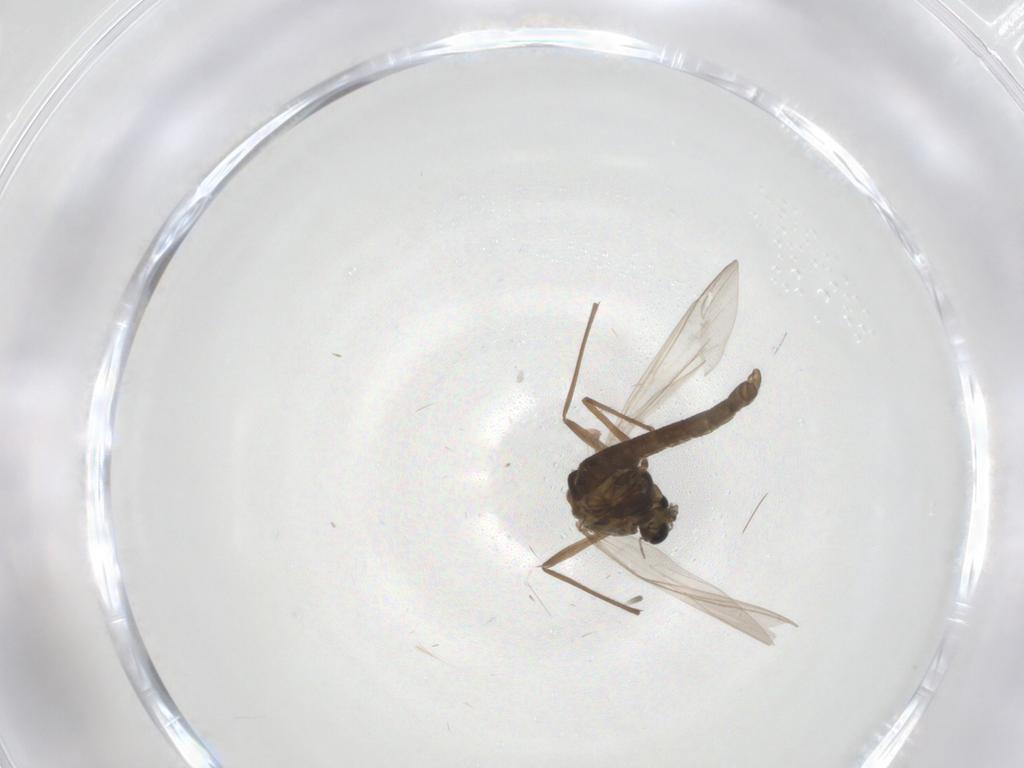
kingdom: Animalia
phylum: Arthropoda
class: Insecta
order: Diptera
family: Chironomidae
